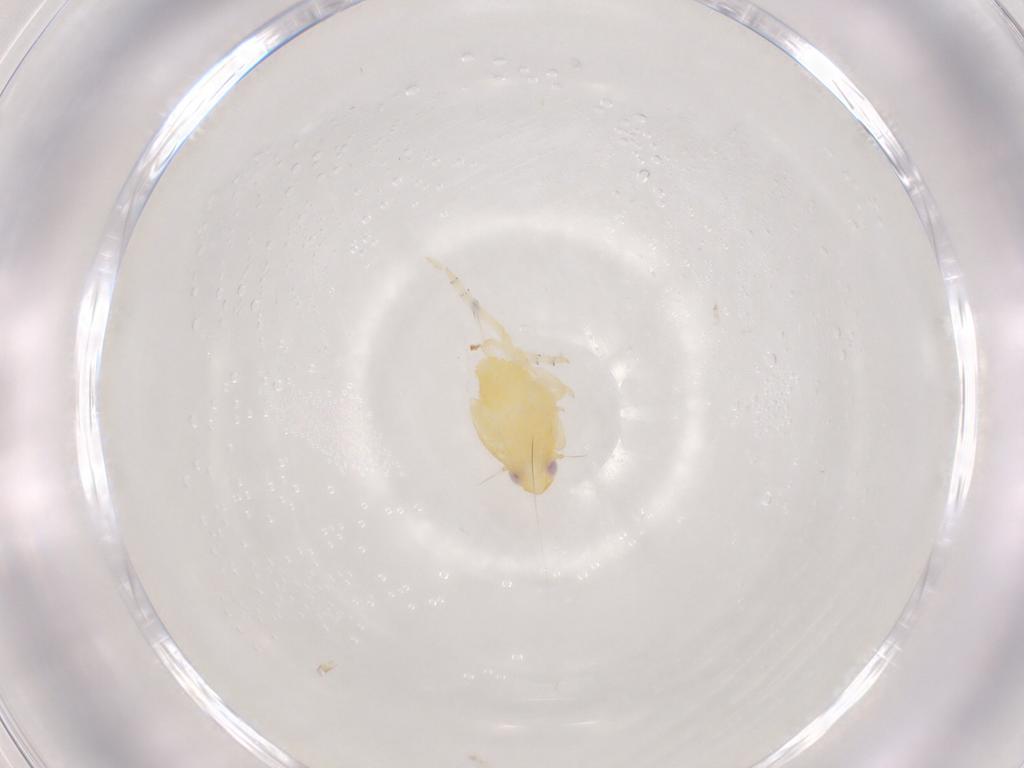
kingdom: Animalia
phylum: Arthropoda
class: Insecta
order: Hemiptera
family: Tropiduchidae
